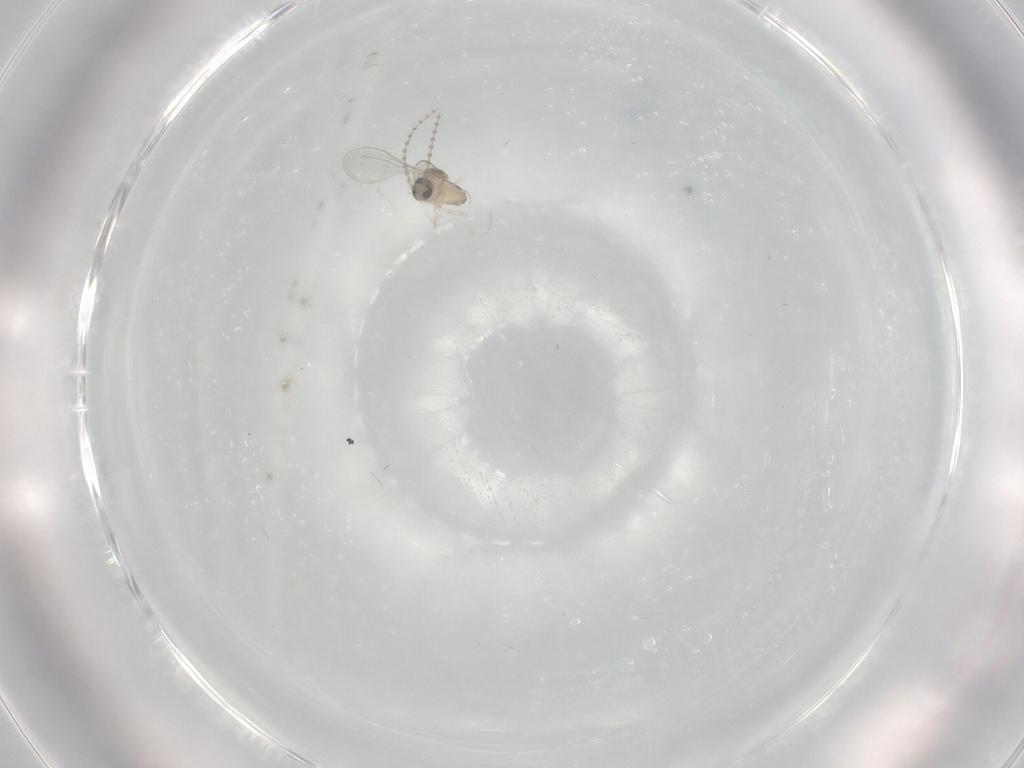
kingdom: Animalia
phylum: Arthropoda
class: Insecta
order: Diptera
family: Cecidomyiidae
